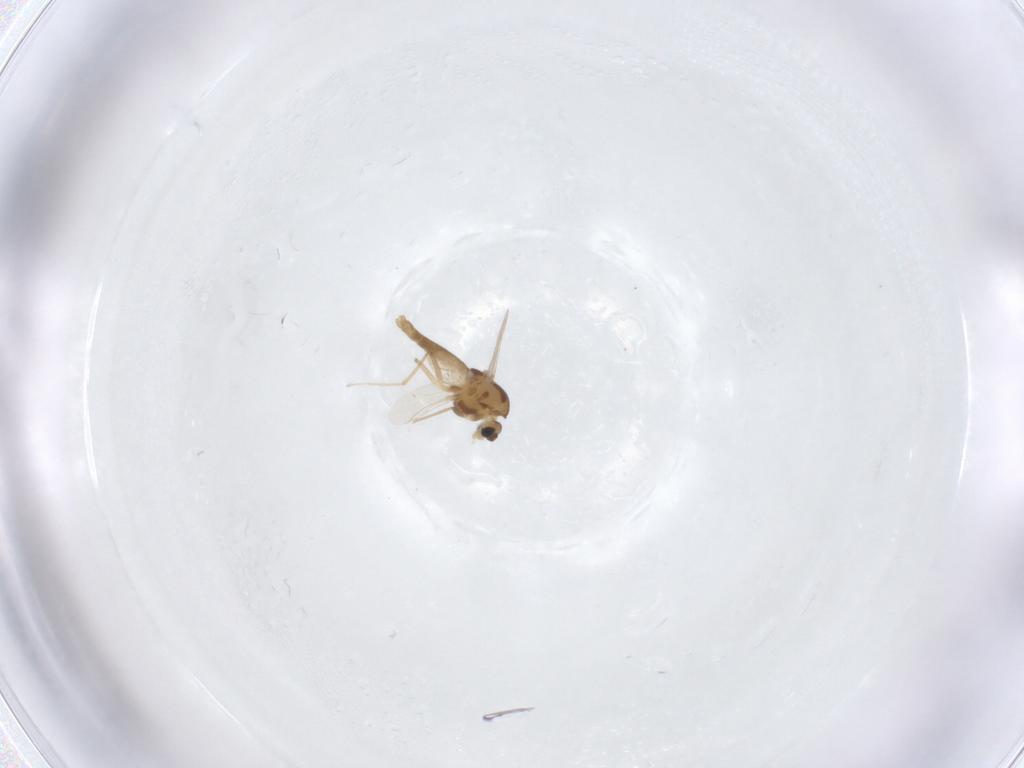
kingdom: Animalia
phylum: Arthropoda
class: Insecta
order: Diptera
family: Chironomidae
